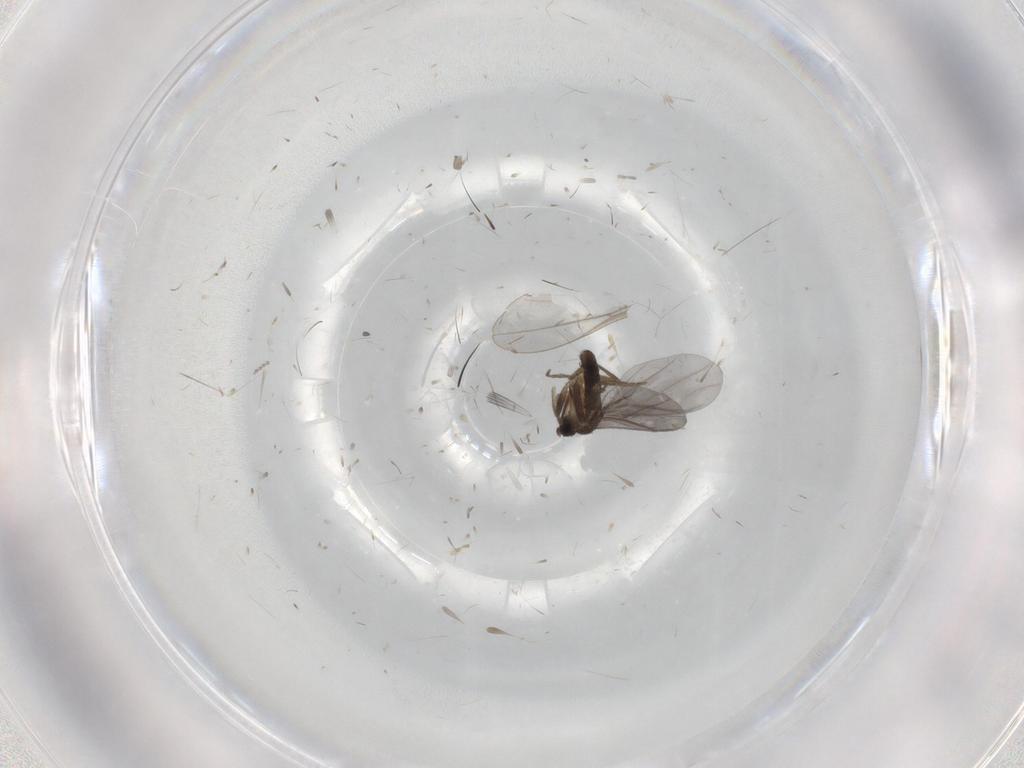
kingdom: Animalia
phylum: Arthropoda
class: Insecta
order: Diptera
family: Phoridae
